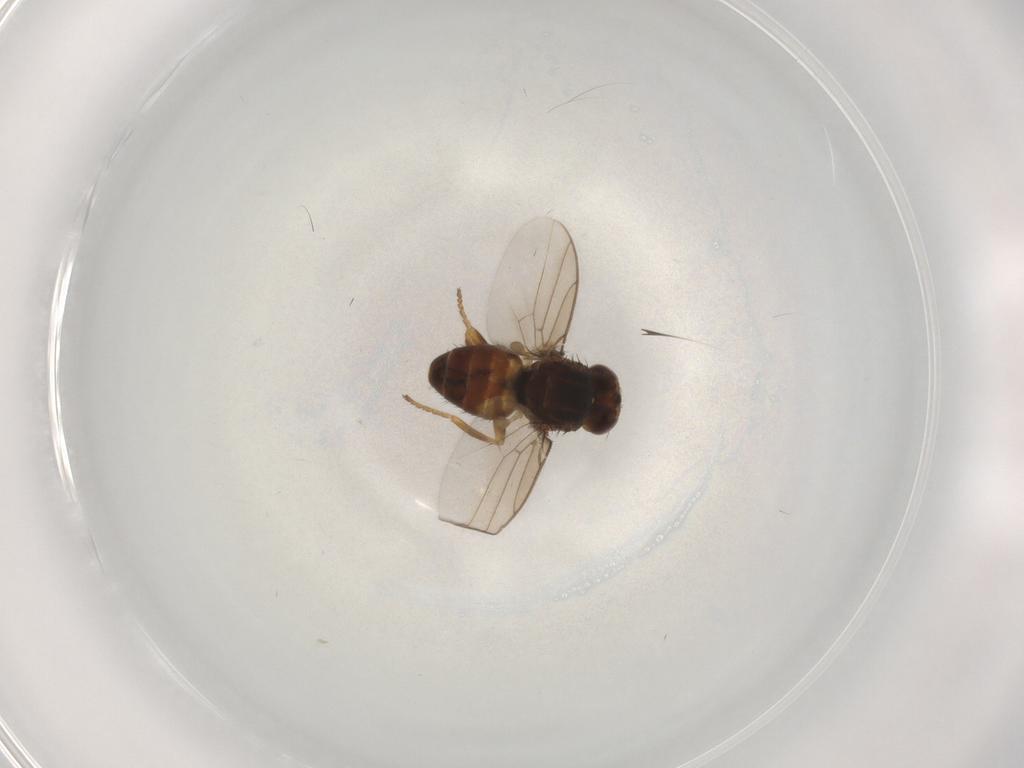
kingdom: Animalia
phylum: Arthropoda
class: Insecta
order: Diptera
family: Chloropidae
